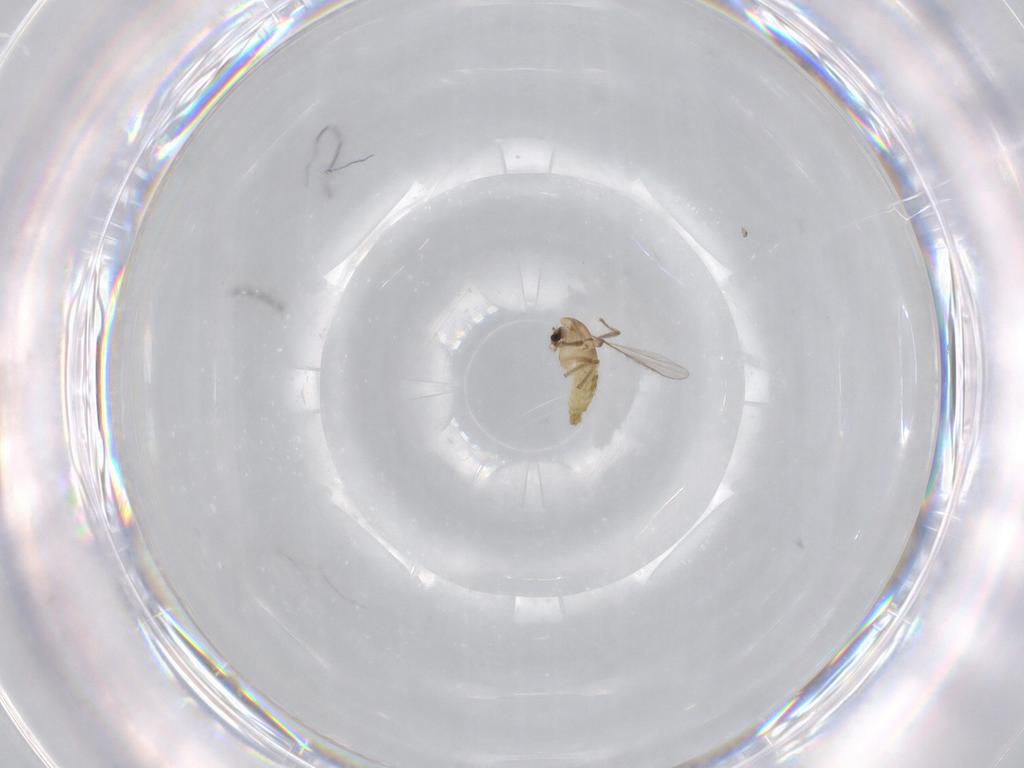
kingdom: Animalia
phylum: Arthropoda
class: Insecta
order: Diptera
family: Chironomidae
